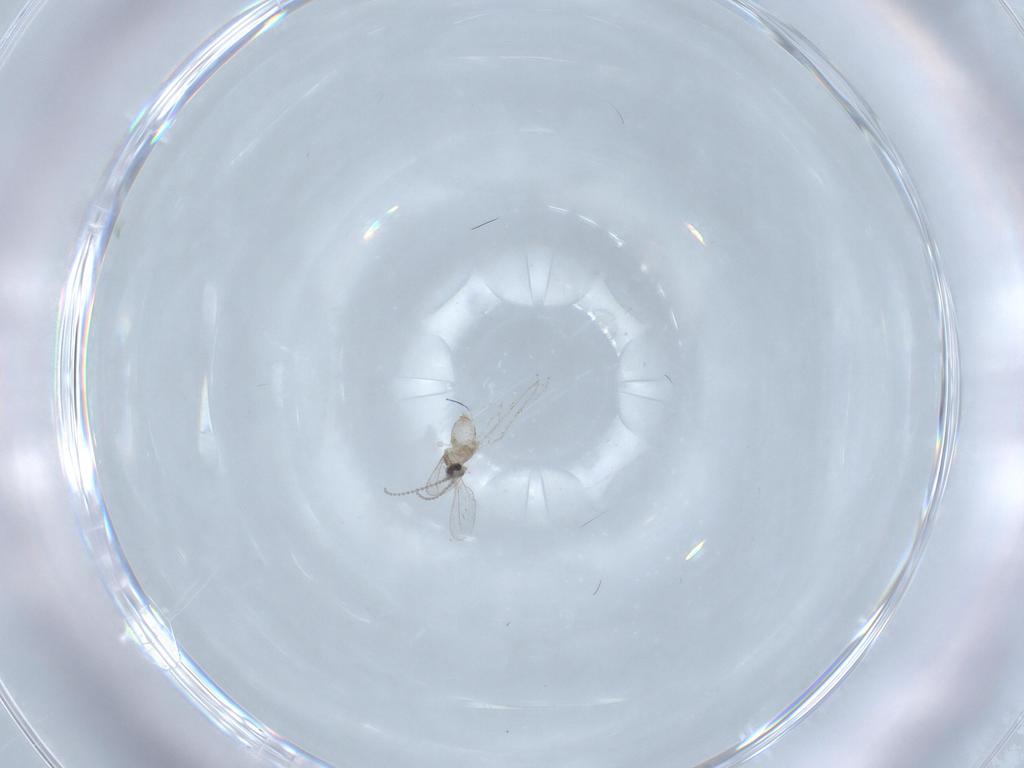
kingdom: Animalia
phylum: Arthropoda
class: Insecta
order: Diptera
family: Cecidomyiidae
